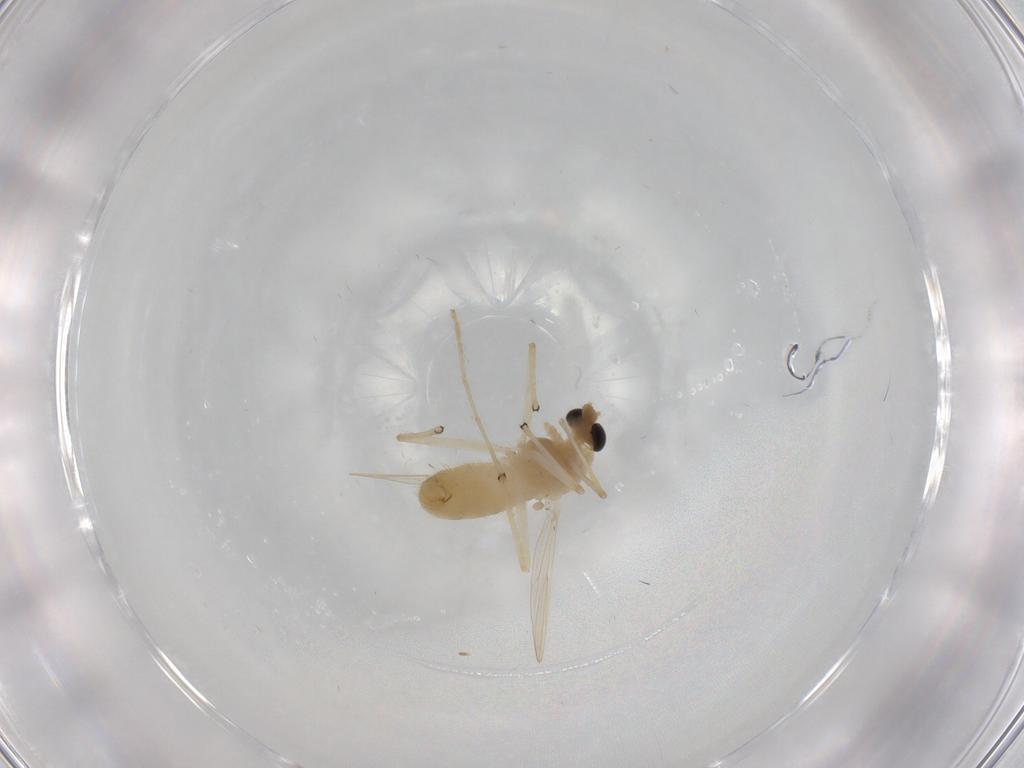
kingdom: Animalia
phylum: Arthropoda
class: Insecta
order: Diptera
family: Chironomidae
